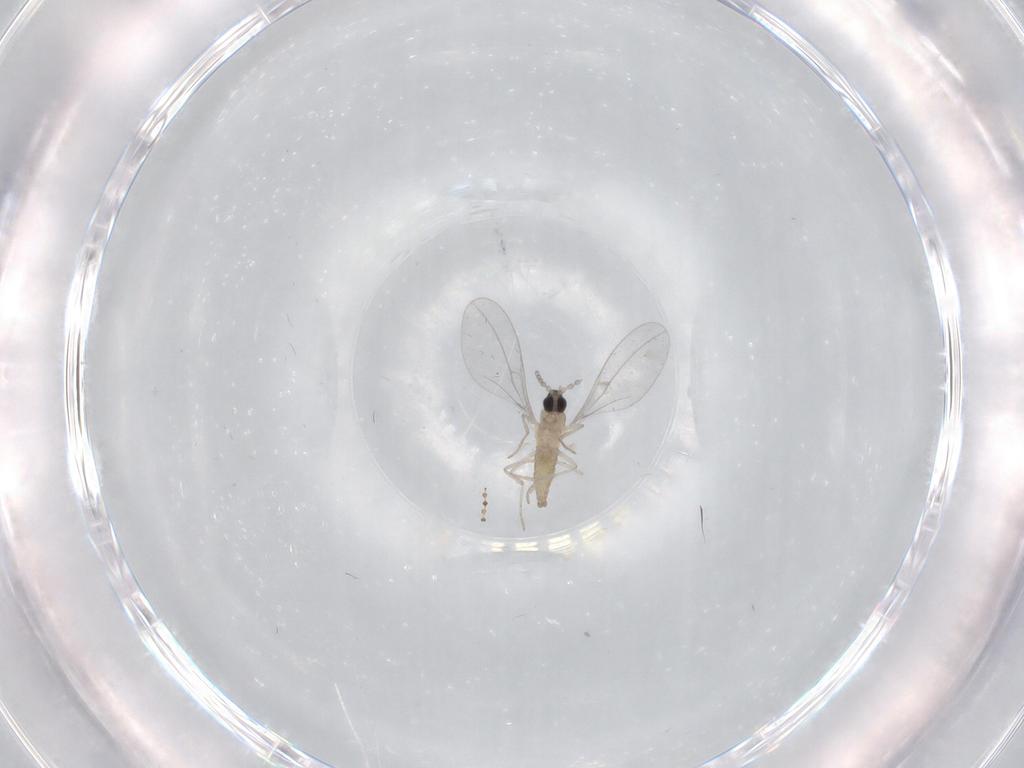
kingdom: Animalia
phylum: Arthropoda
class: Insecta
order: Diptera
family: Cecidomyiidae
